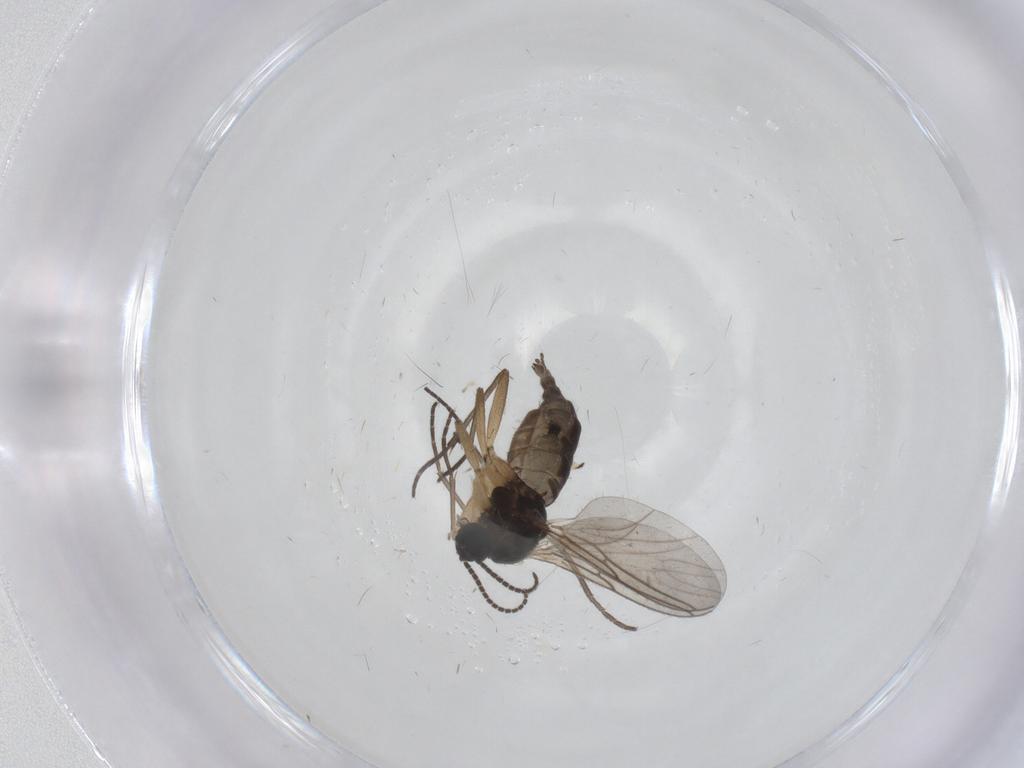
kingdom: Animalia
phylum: Arthropoda
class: Insecta
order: Diptera
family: Sciaridae
